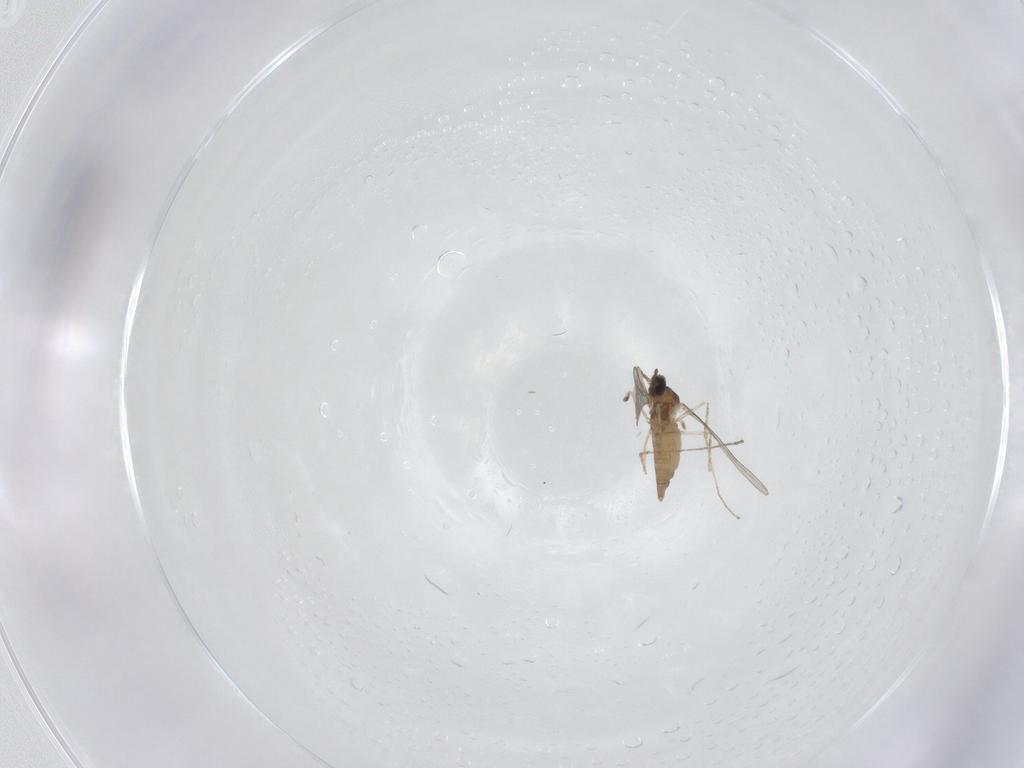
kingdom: Animalia
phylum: Arthropoda
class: Insecta
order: Diptera
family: Cecidomyiidae
